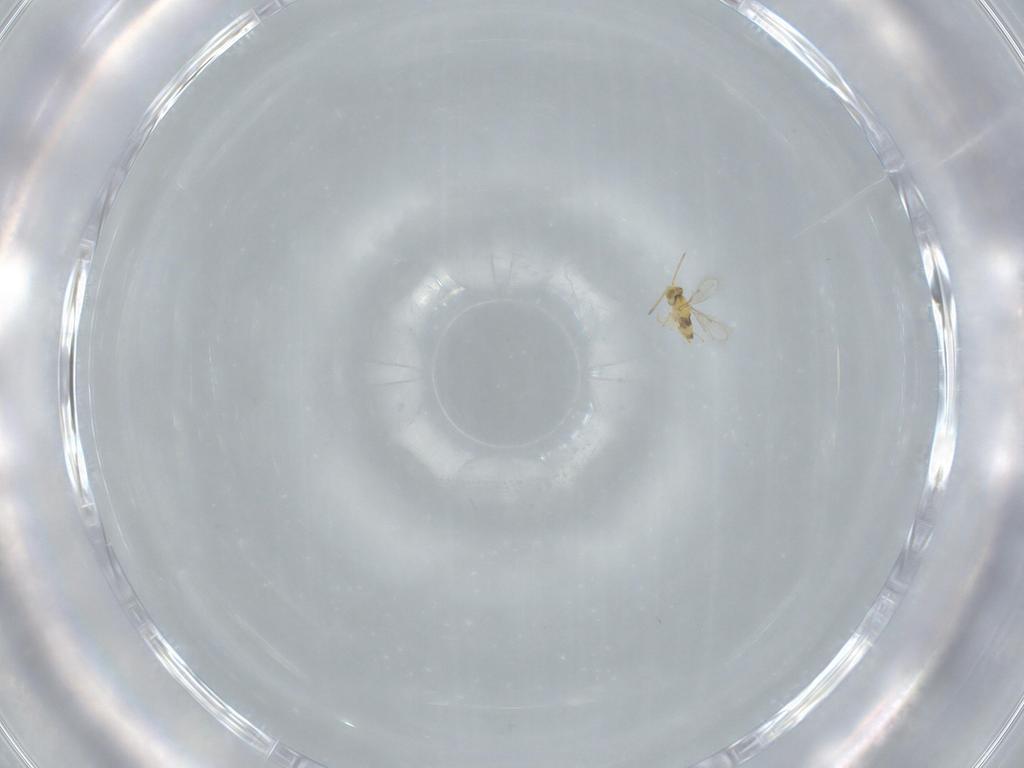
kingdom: Animalia
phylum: Arthropoda
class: Insecta
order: Hymenoptera
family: Aphelinidae
